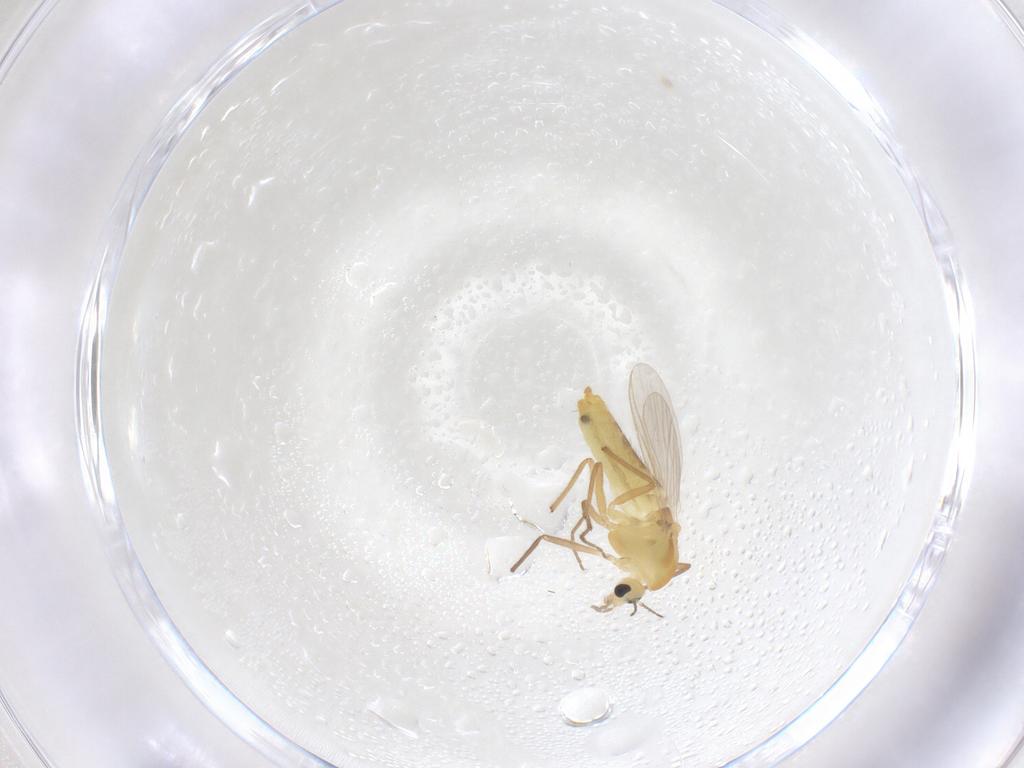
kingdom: Animalia
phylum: Arthropoda
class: Insecta
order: Diptera
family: Chironomidae
